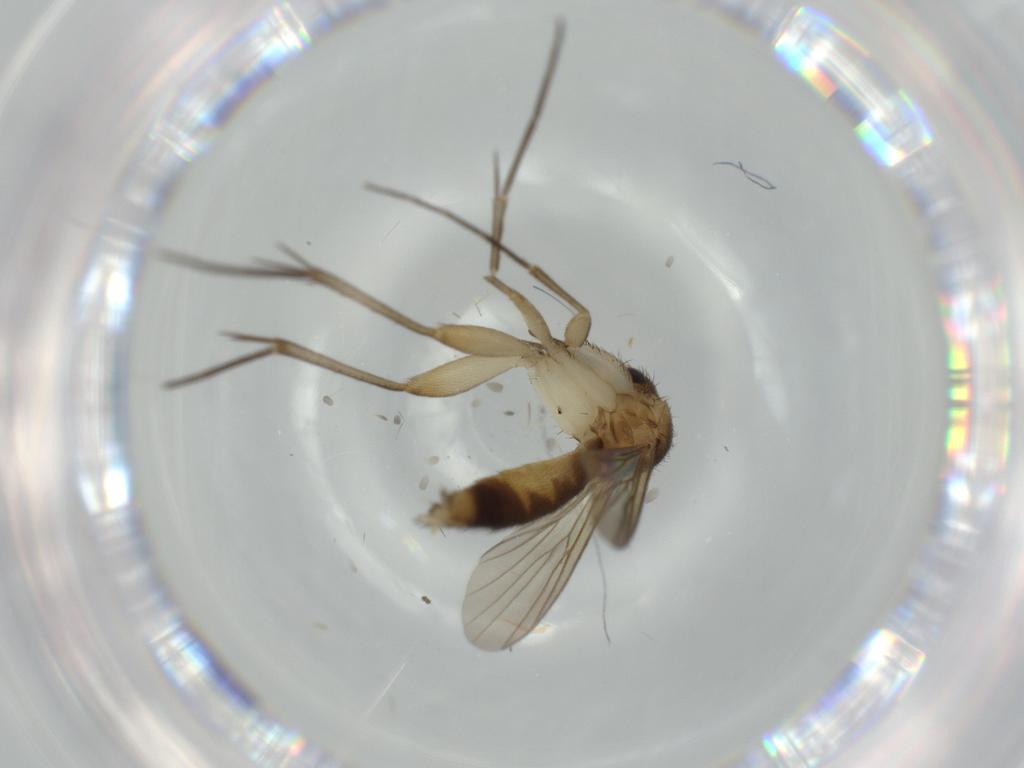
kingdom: Animalia
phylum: Arthropoda
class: Insecta
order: Diptera
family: Mycetophilidae
